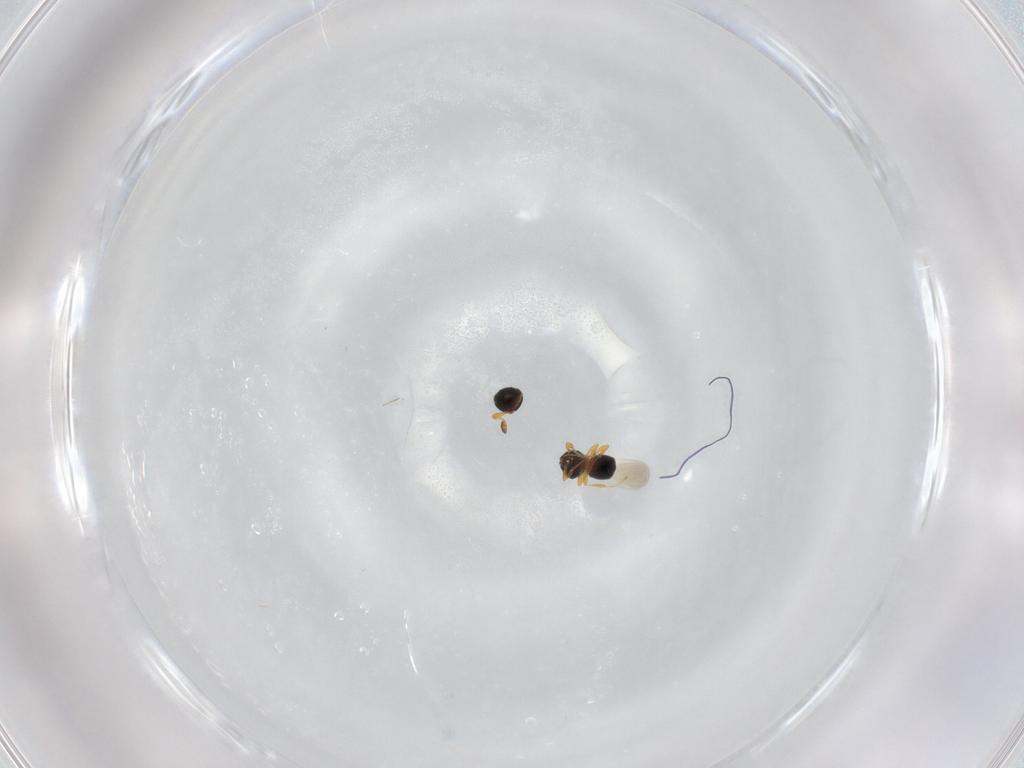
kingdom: Animalia
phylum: Arthropoda
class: Insecta
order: Hymenoptera
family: Platygastridae
